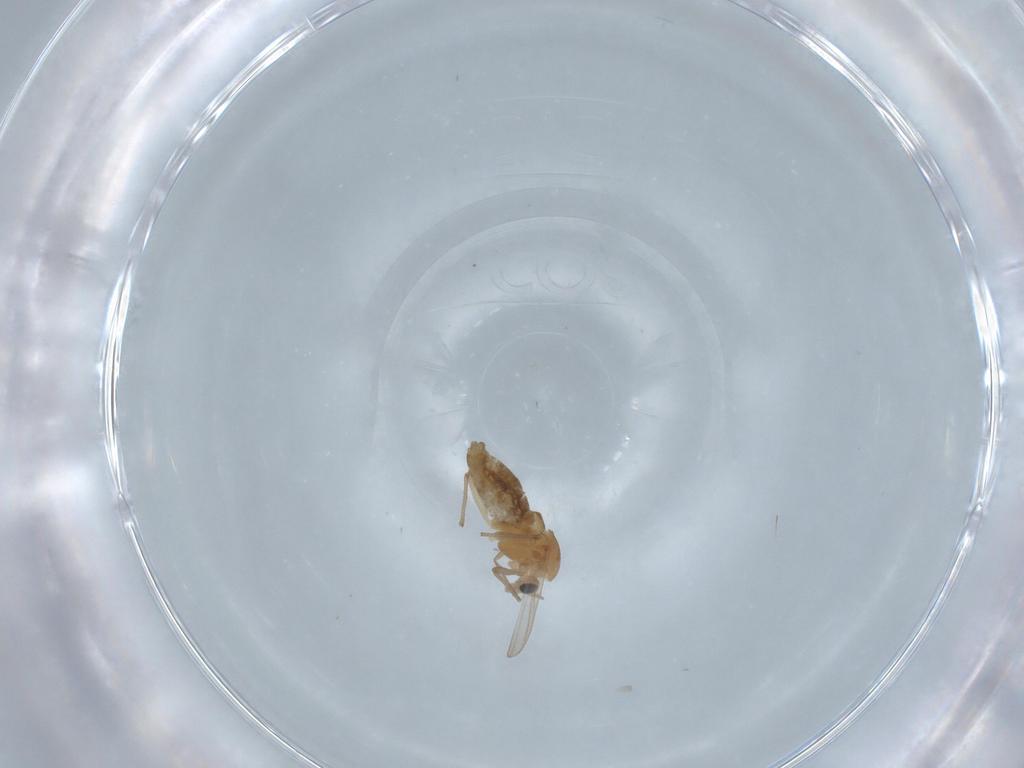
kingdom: Animalia
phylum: Arthropoda
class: Insecta
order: Diptera
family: Chironomidae
